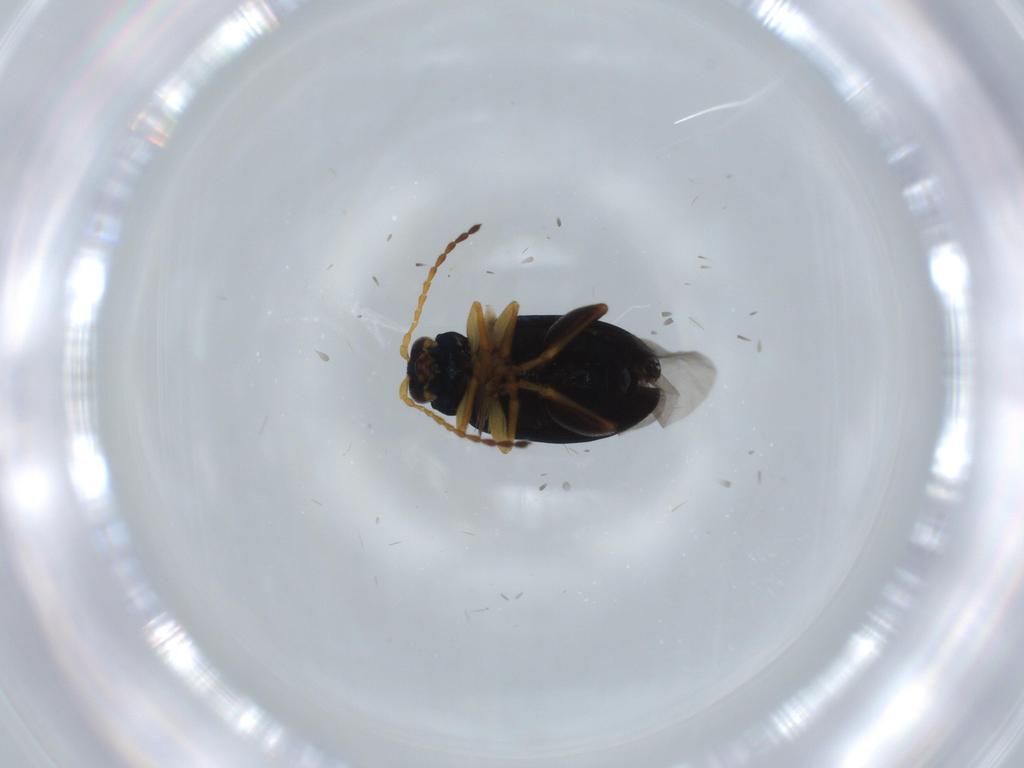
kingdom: Animalia
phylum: Arthropoda
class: Insecta
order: Coleoptera
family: Chrysomelidae
